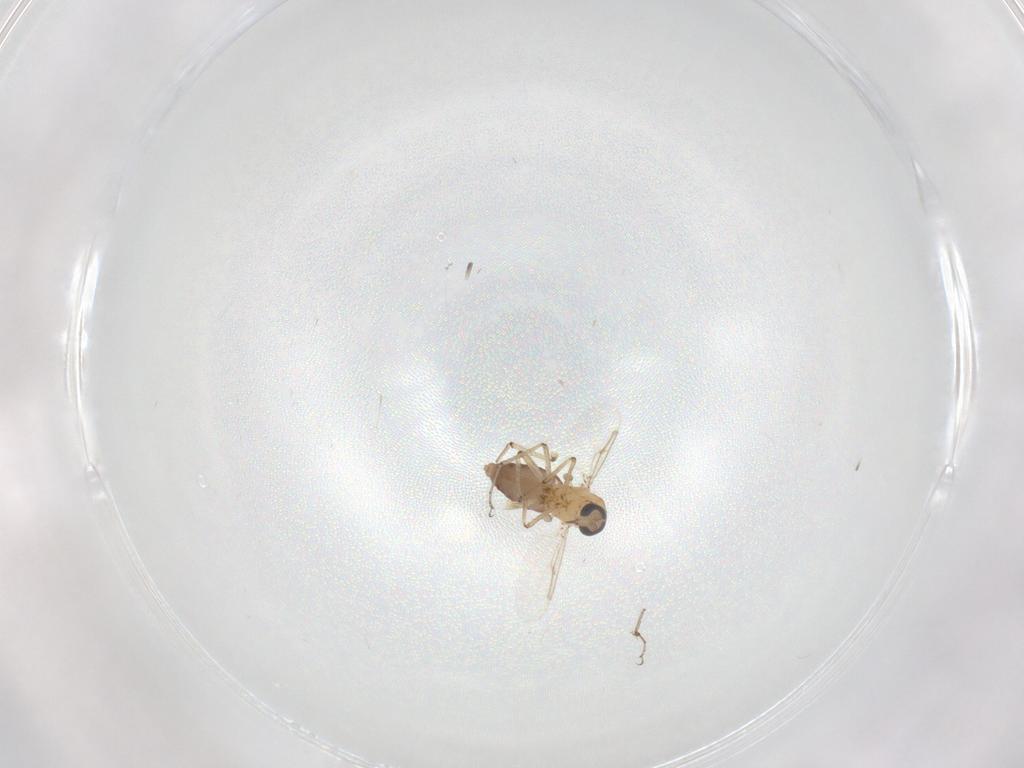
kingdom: Animalia
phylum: Arthropoda
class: Insecta
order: Diptera
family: Ceratopogonidae
